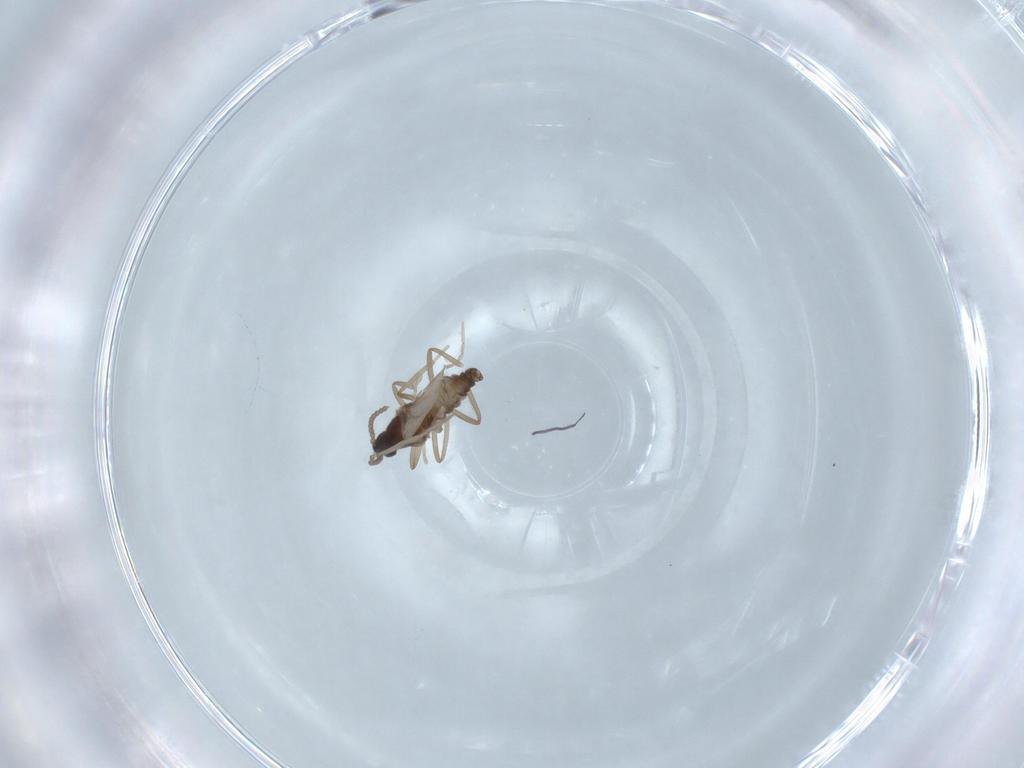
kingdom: Animalia
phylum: Arthropoda
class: Insecta
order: Diptera
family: Cecidomyiidae
